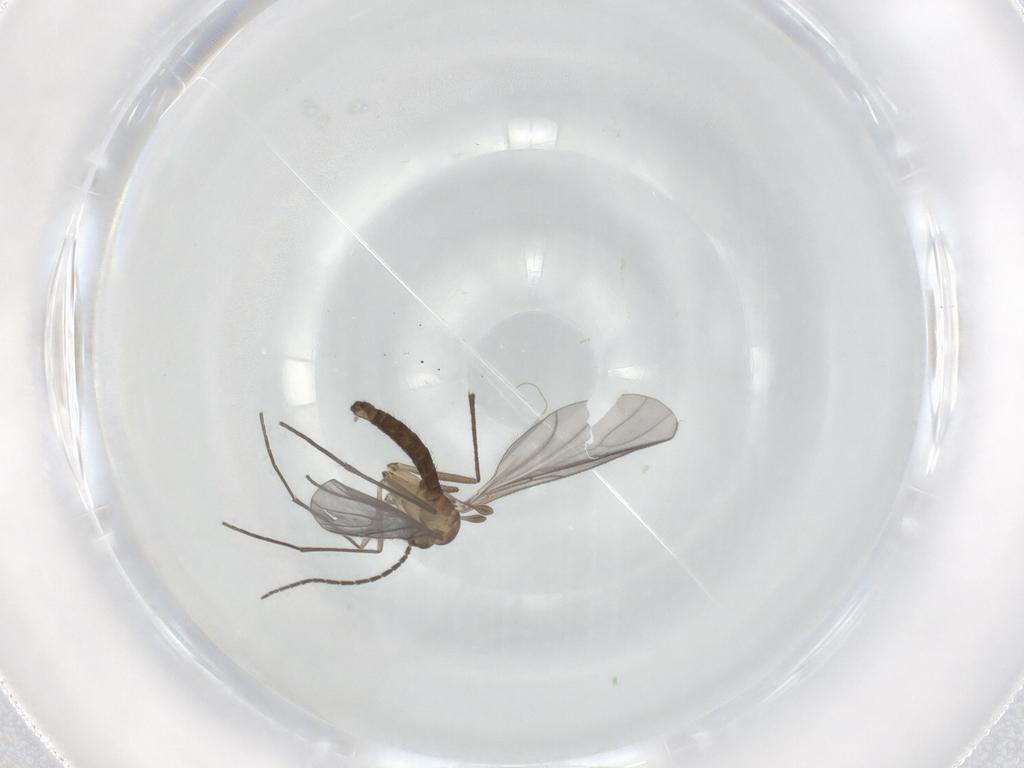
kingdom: Animalia
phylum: Arthropoda
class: Insecta
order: Diptera
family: Sciaridae
